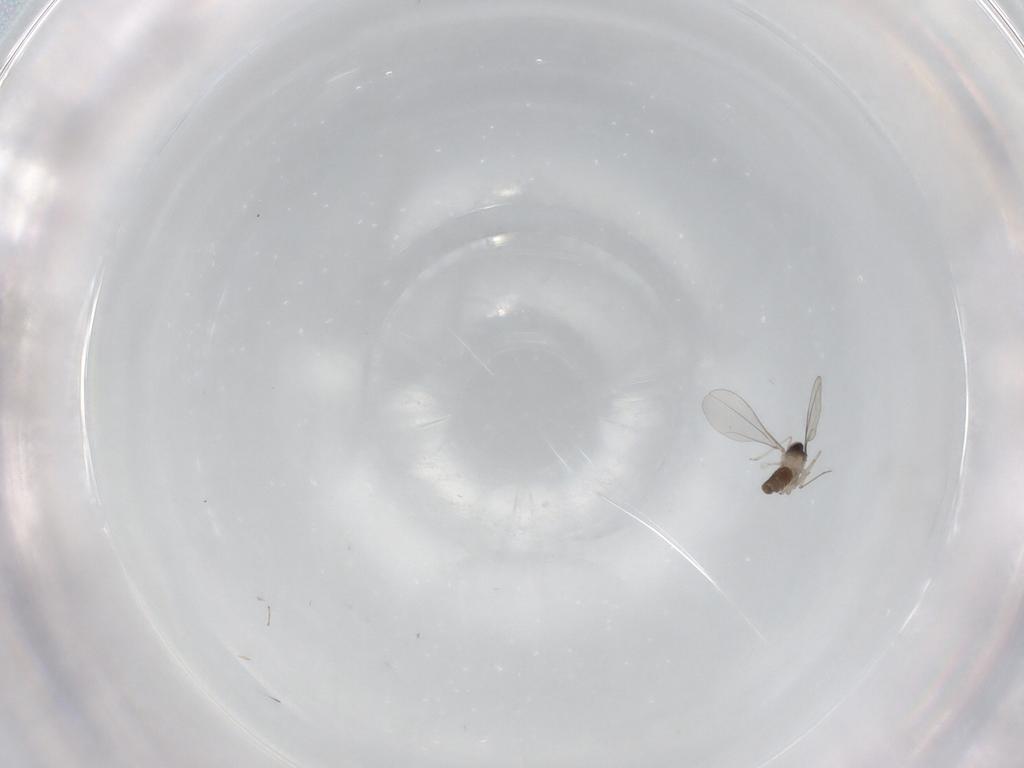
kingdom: Animalia
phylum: Arthropoda
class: Insecta
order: Diptera
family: Cecidomyiidae
